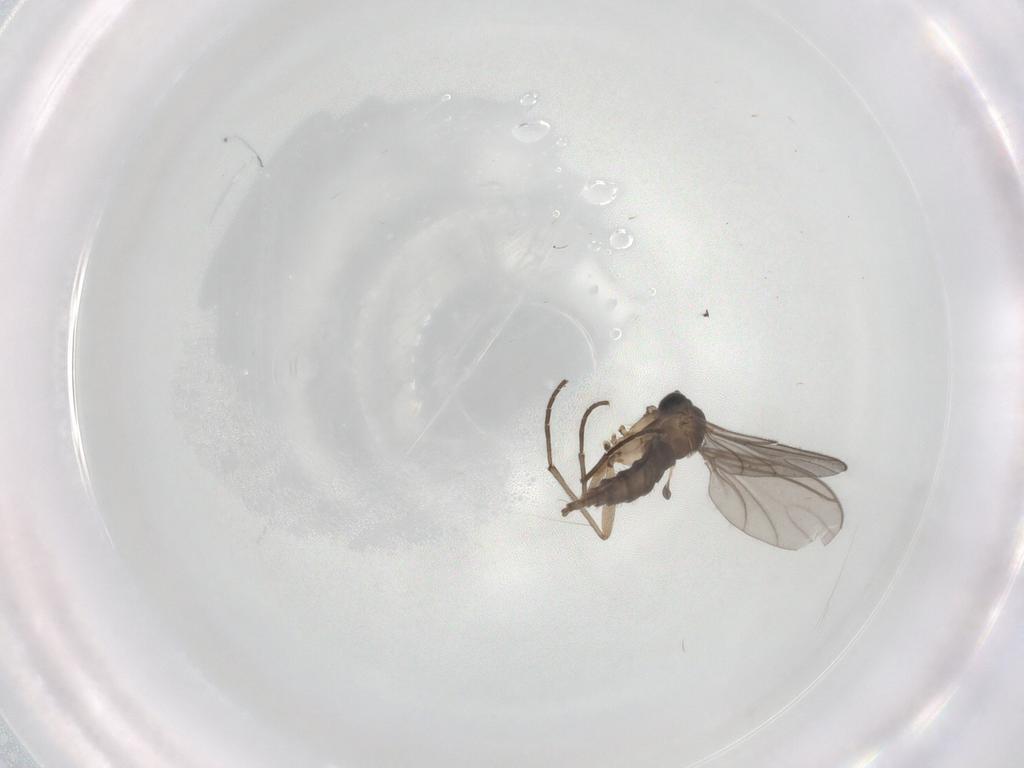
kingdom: Animalia
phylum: Arthropoda
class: Insecta
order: Diptera
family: Sciaridae
